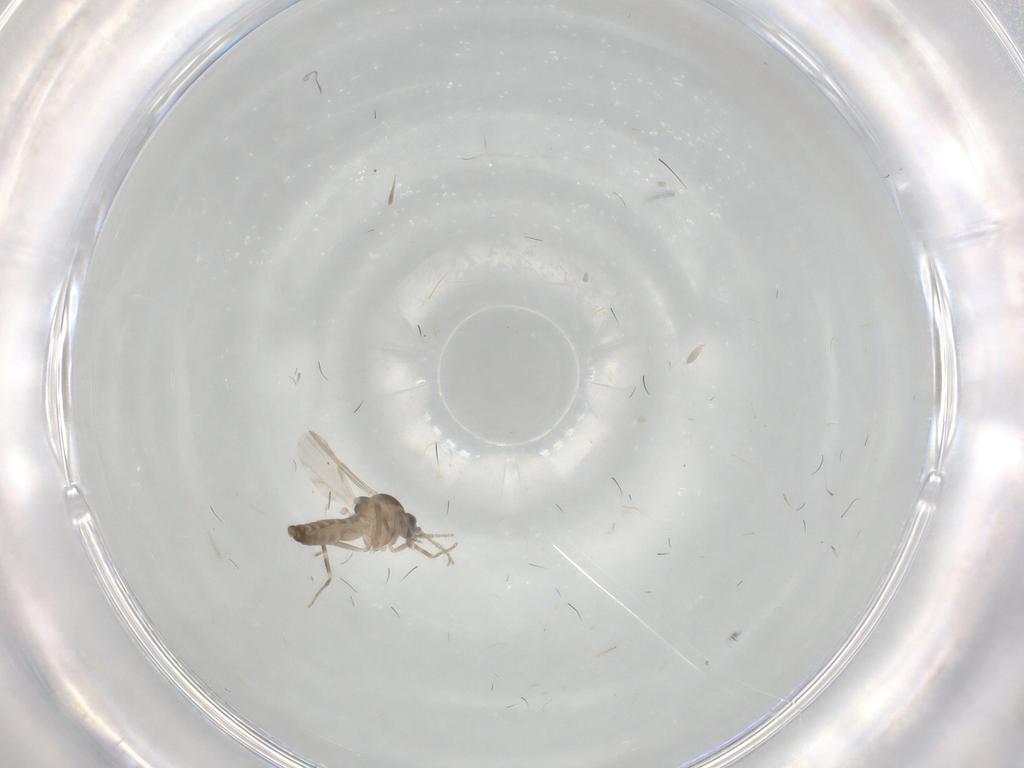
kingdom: Animalia
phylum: Arthropoda
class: Insecta
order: Diptera
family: Ceratopogonidae
